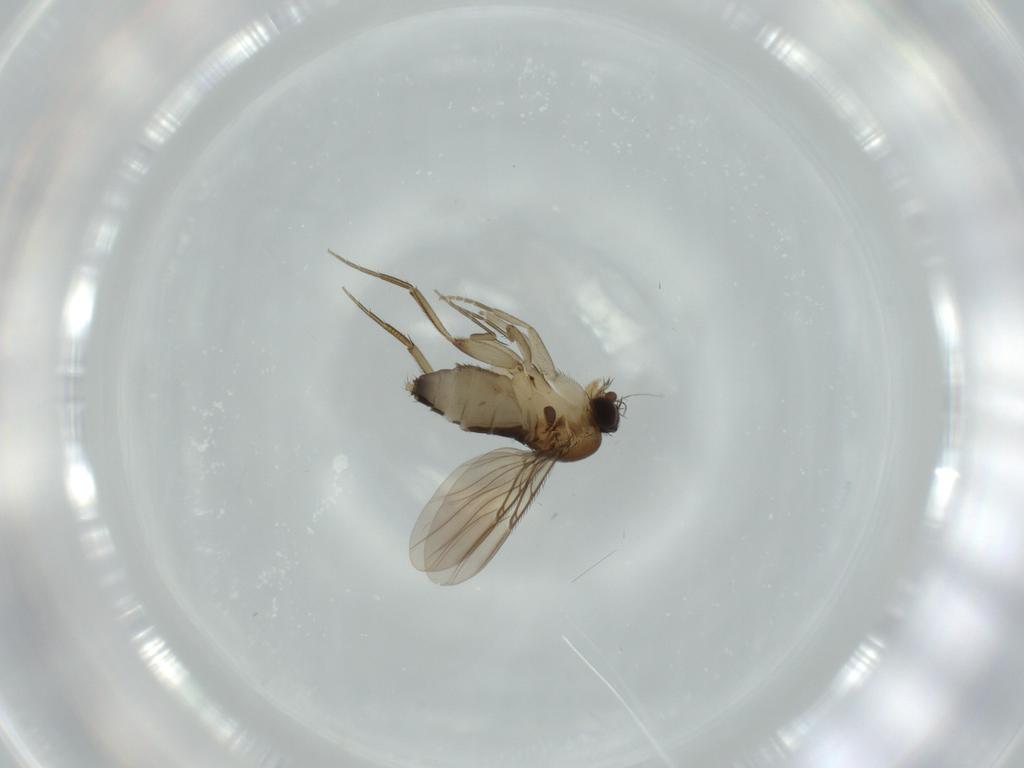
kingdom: Animalia
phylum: Arthropoda
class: Insecta
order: Diptera
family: Phoridae
